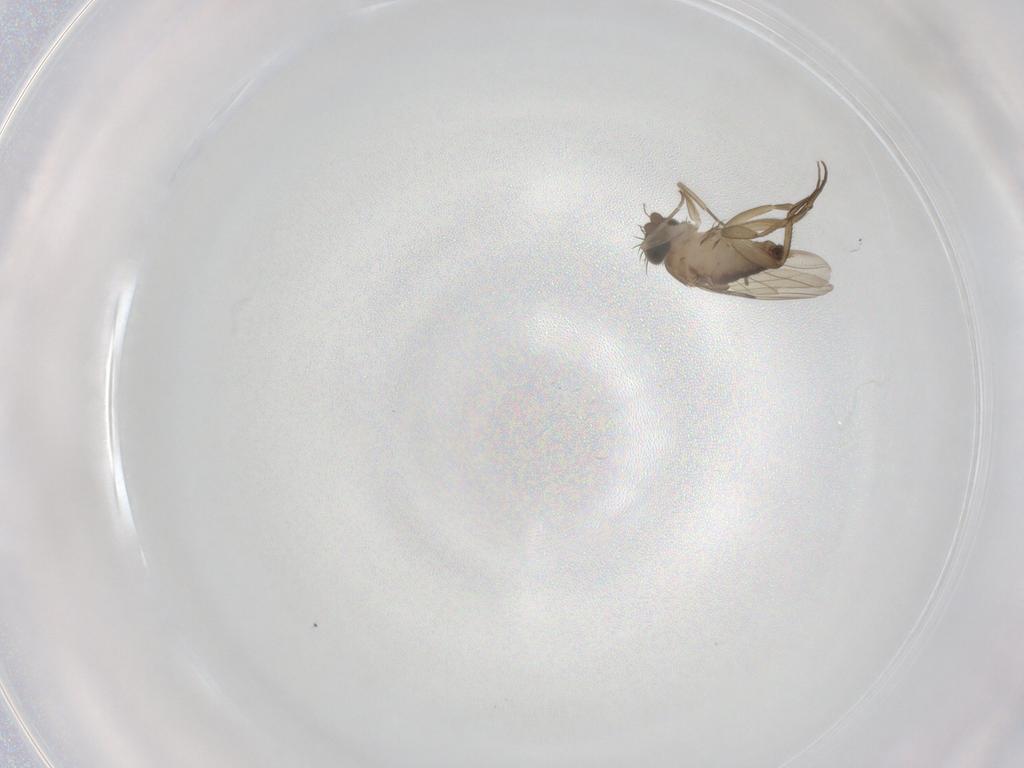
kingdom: Animalia
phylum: Arthropoda
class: Insecta
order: Diptera
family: Phoridae
